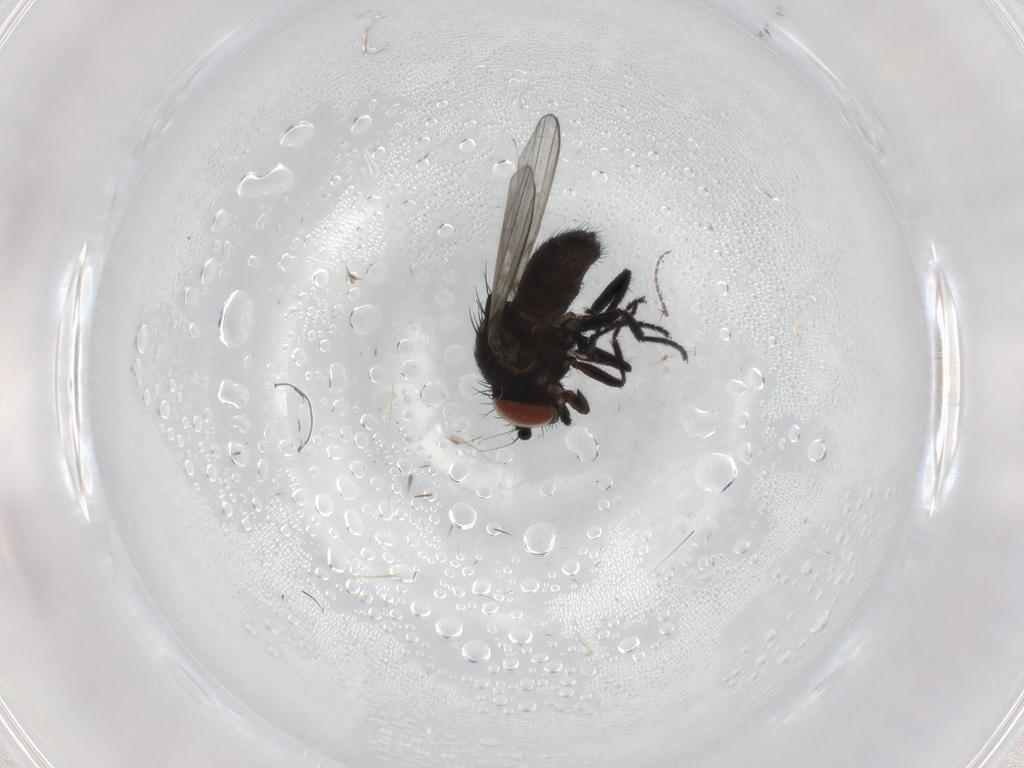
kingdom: Animalia
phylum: Arthropoda
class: Insecta
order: Diptera
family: Milichiidae
